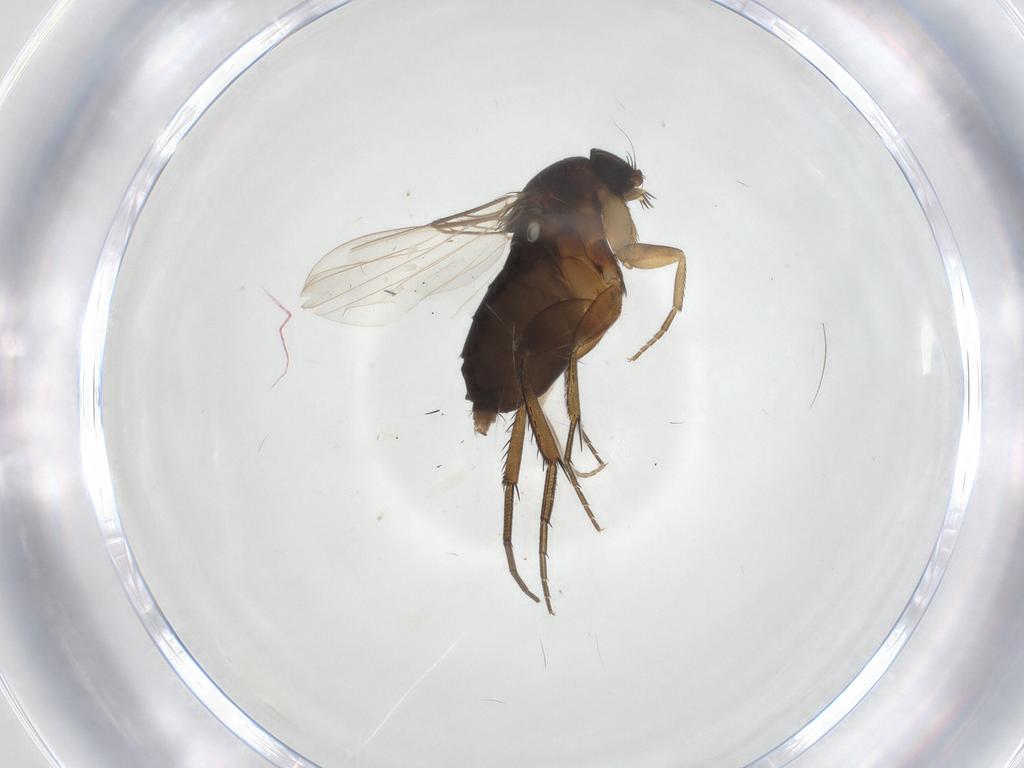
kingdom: Animalia
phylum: Arthropoda
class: Insecta
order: Diptera
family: Phoridae
